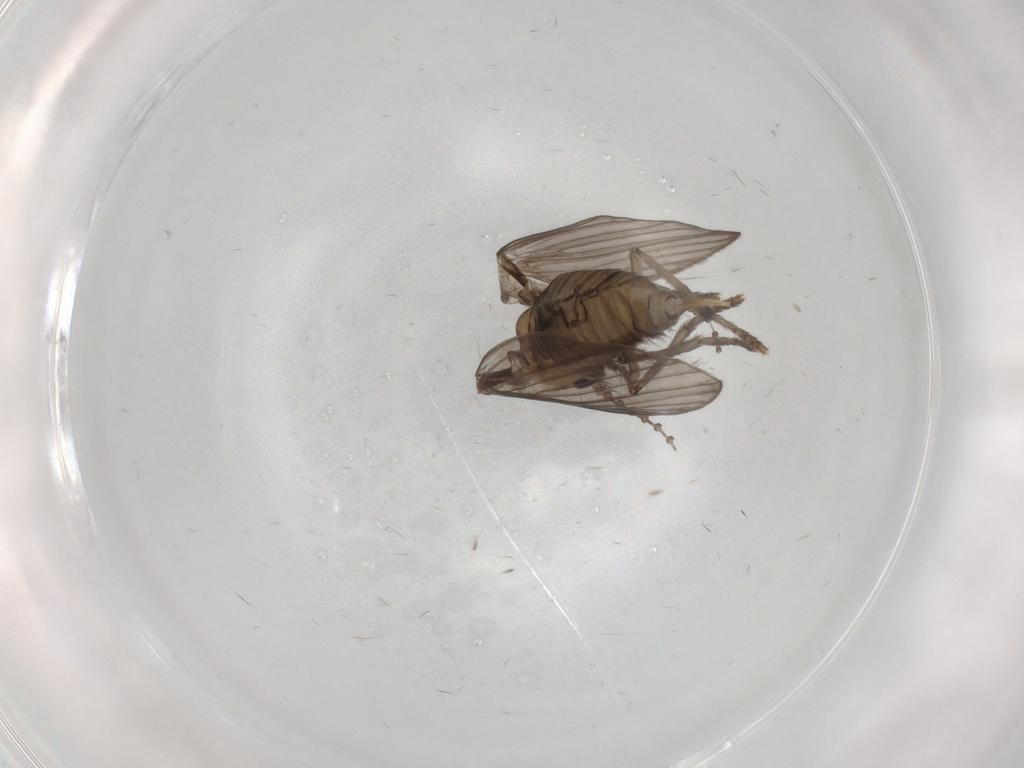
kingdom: Animalia
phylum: Arthropoda
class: Insecta
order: Diptera
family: Psychodidae
